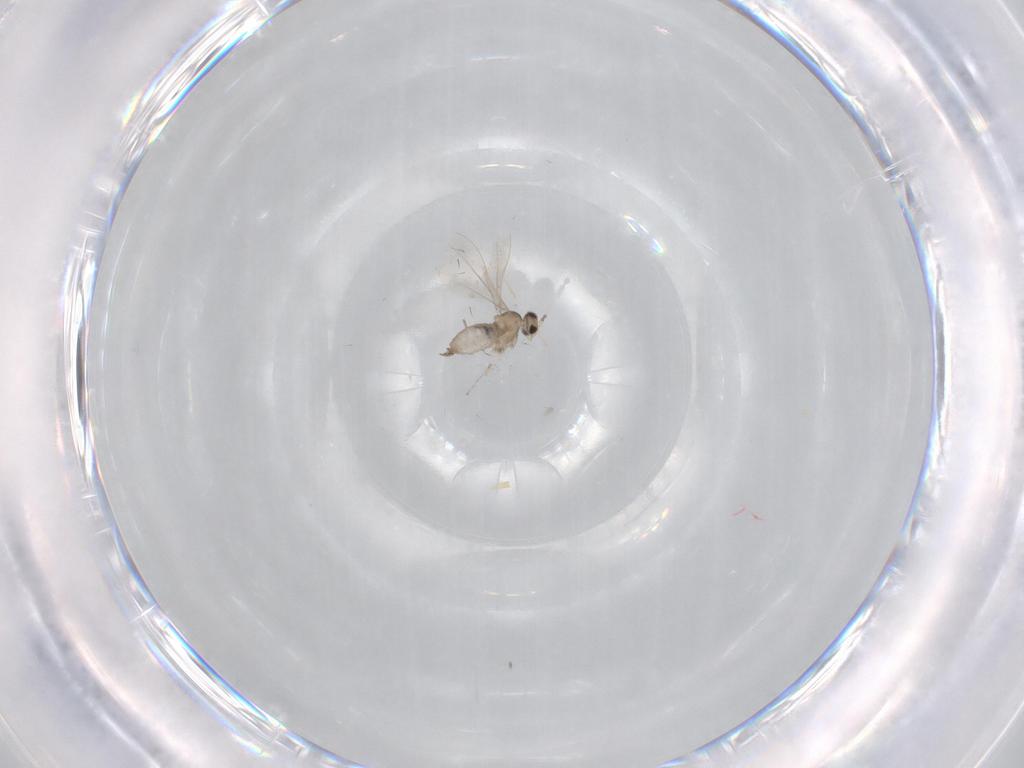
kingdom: Animalia
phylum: Arthropoda
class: Insecta
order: Diptera
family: Cecidomyiidae
